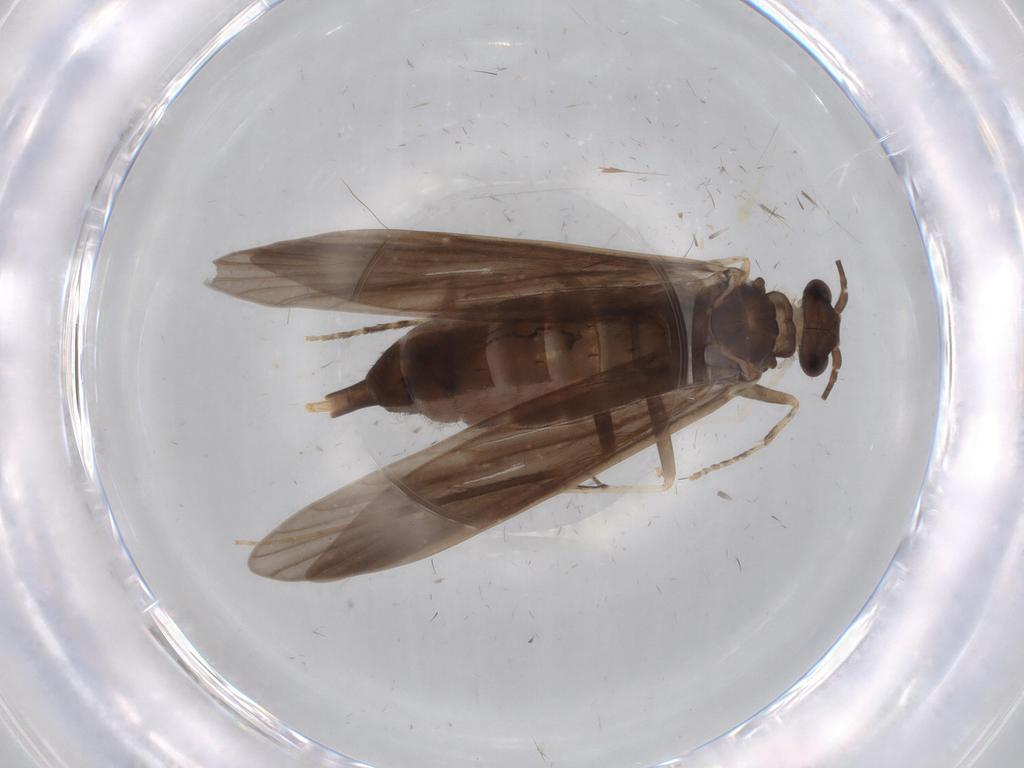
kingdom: Animalia
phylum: Arthropoda
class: Insecta
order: Trichoptera
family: Xiphocentronidae
